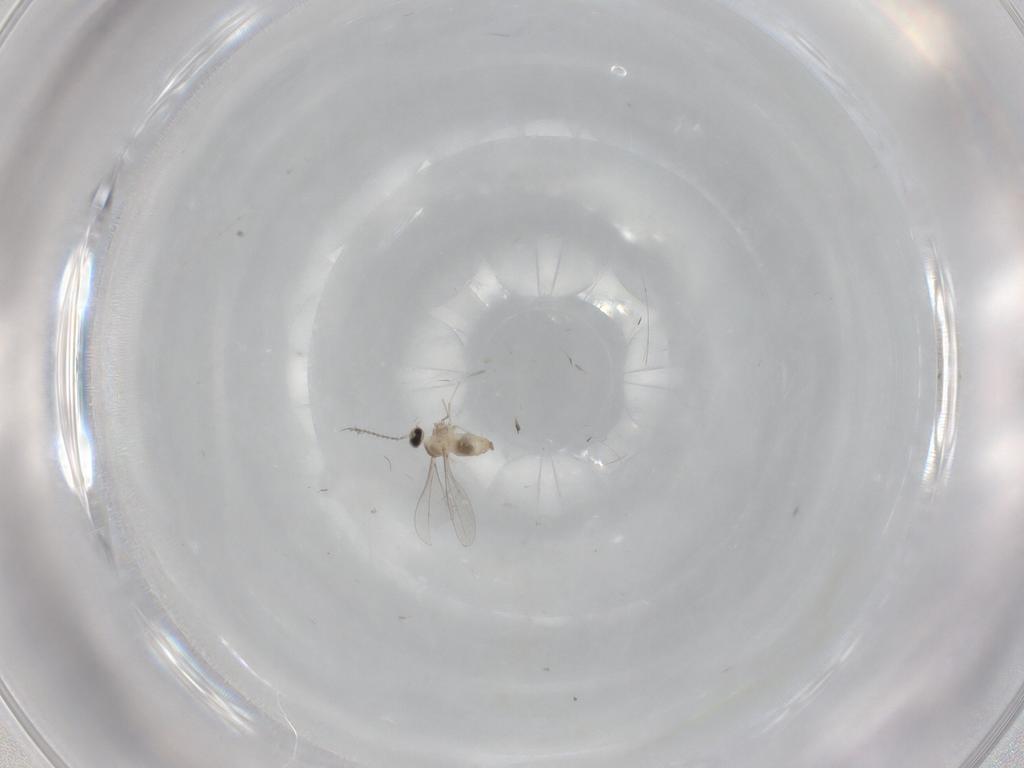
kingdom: Animalia
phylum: Arthropoda
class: Insecta
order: Diptera
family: Cecidomyiidae
